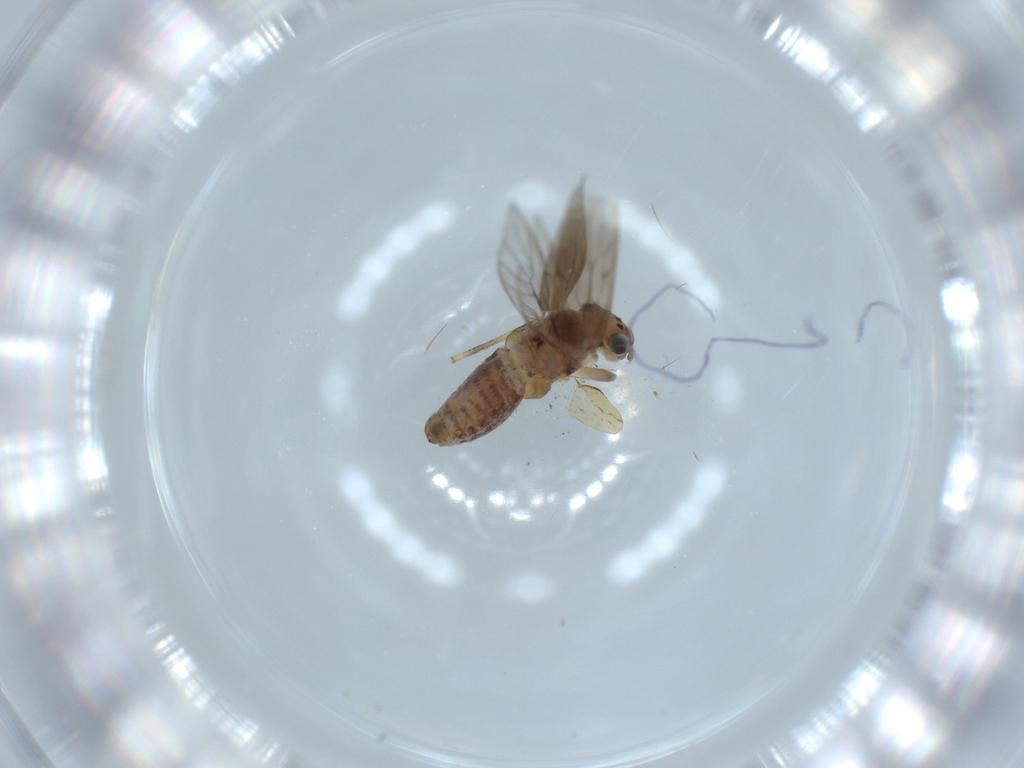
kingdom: Animalia
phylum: Arthropoda
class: Insecta
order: Psocodea
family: Lepidopsocidae
